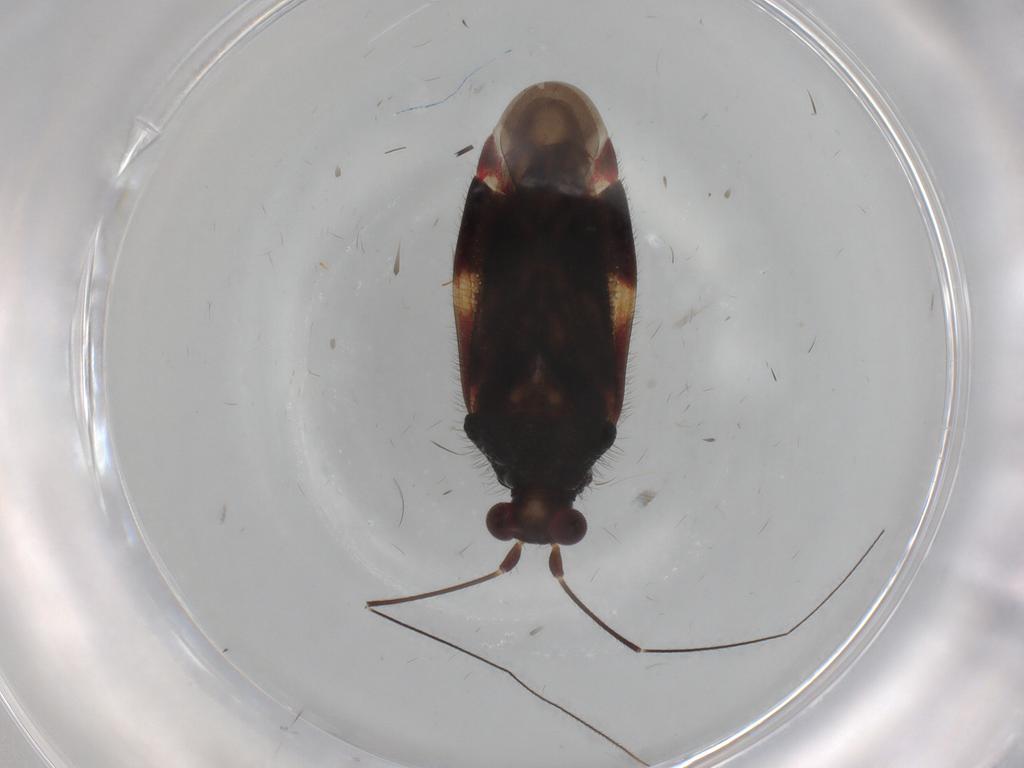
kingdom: Animalia
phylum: Arthropoda
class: Insecta
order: Hemiptera
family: Miridae
